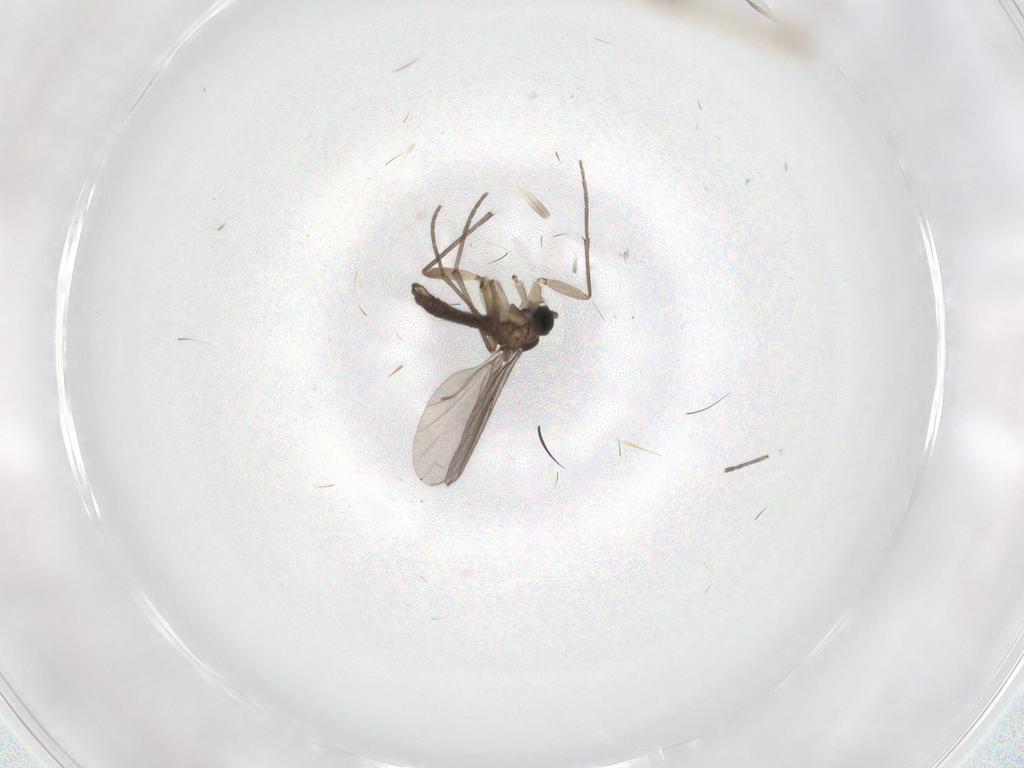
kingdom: Animalia
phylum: Arthropoda
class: Insecta
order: Diptera
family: Sciaridae
